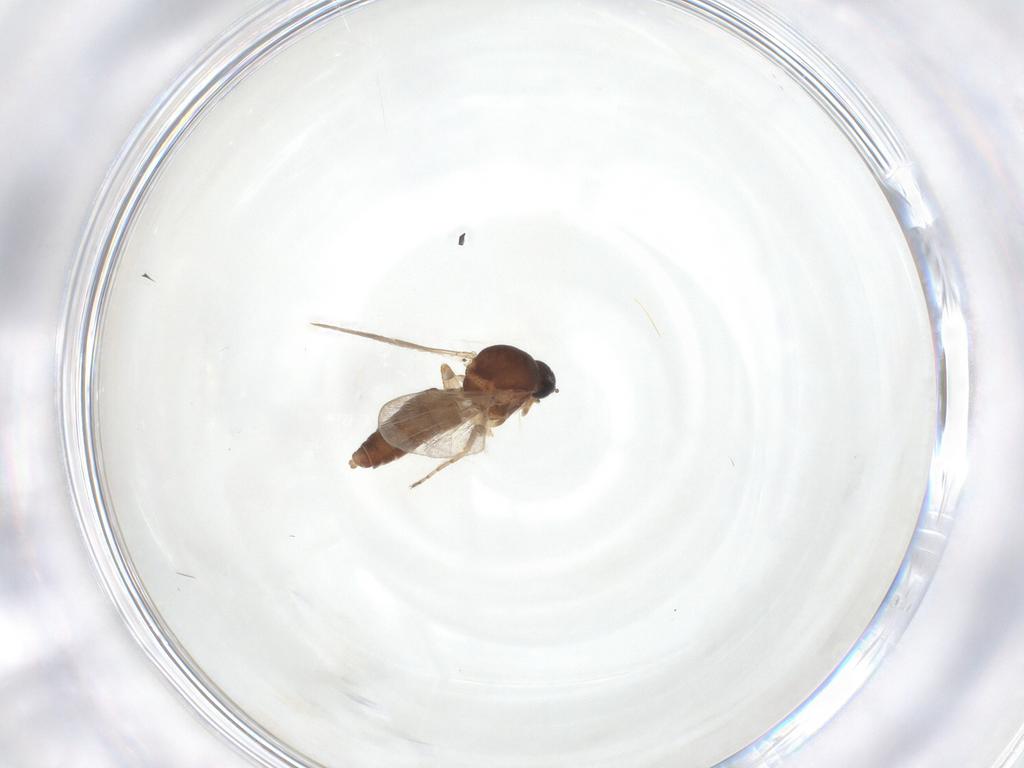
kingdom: Animalia
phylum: Arthropoda
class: Insecta
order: Diptera
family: Ceratopogonidae
